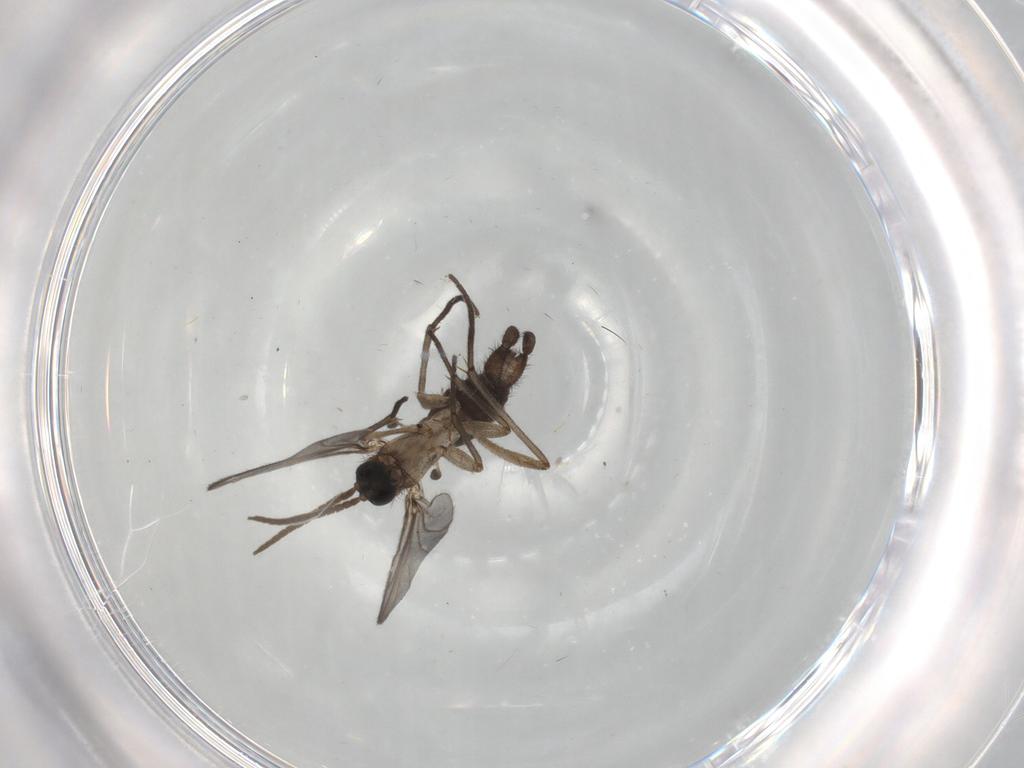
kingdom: Animalia
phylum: Arthropoda
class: Insecta
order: Diptera
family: Sciaridae
